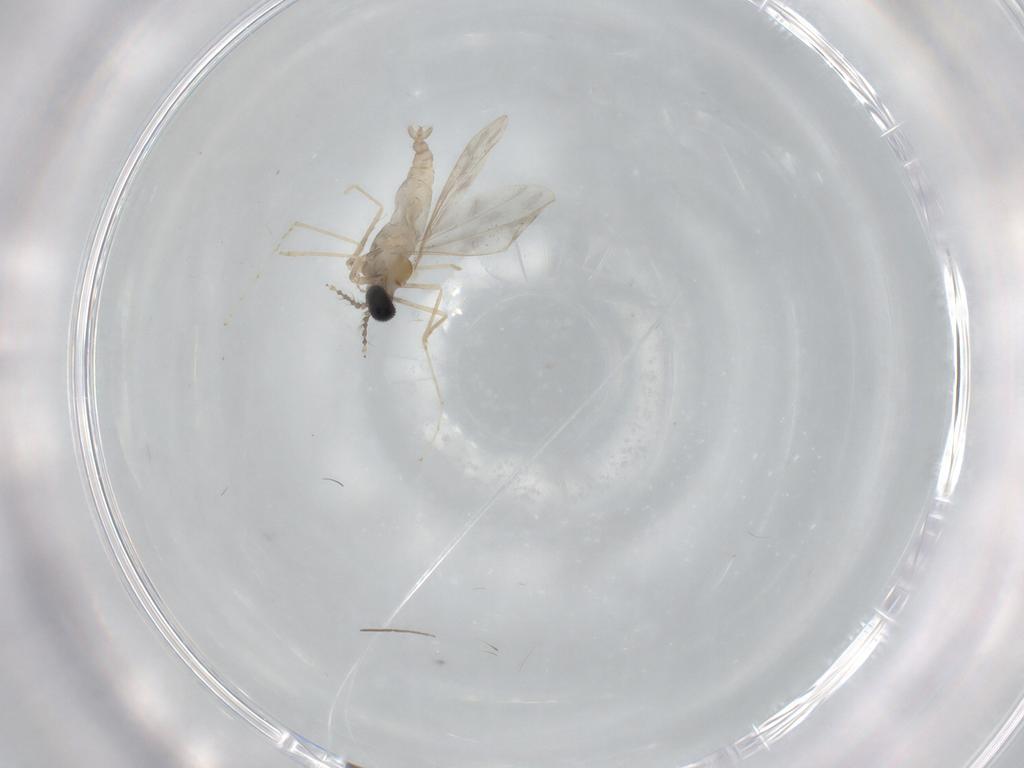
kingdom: Animalia
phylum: Arthropoda
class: Insecta
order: Diptera
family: Cecidomyiidae
